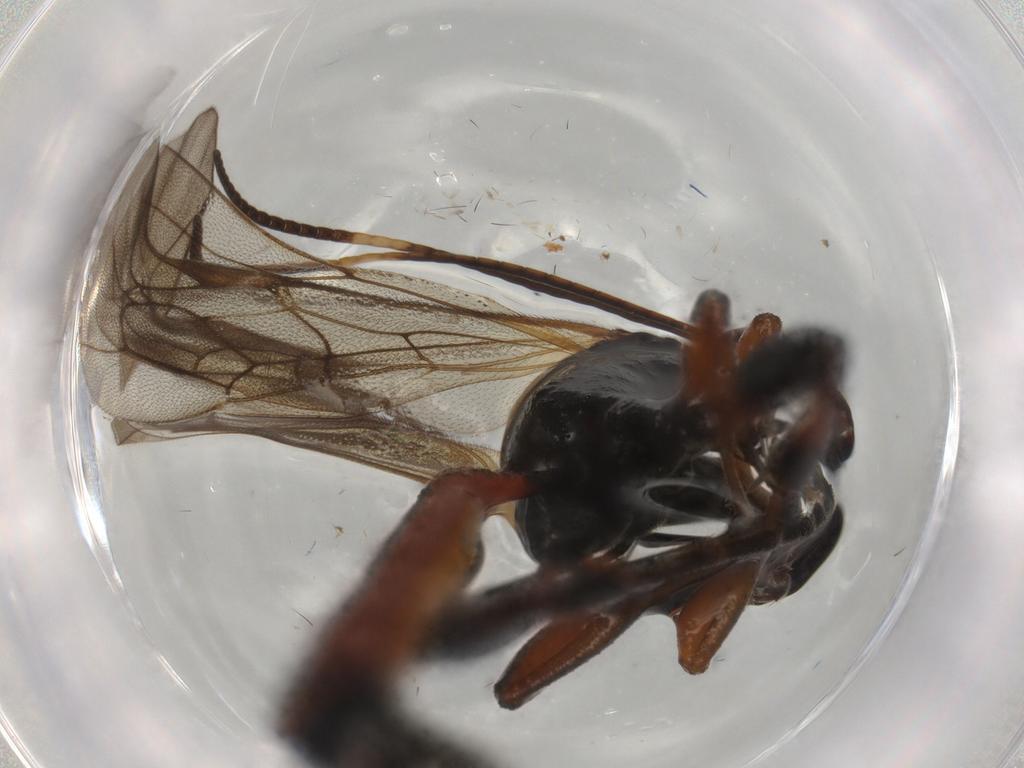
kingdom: Animalia
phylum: Arthropoda
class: Insecta
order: Hymenoptera
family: Ichneumonidae
